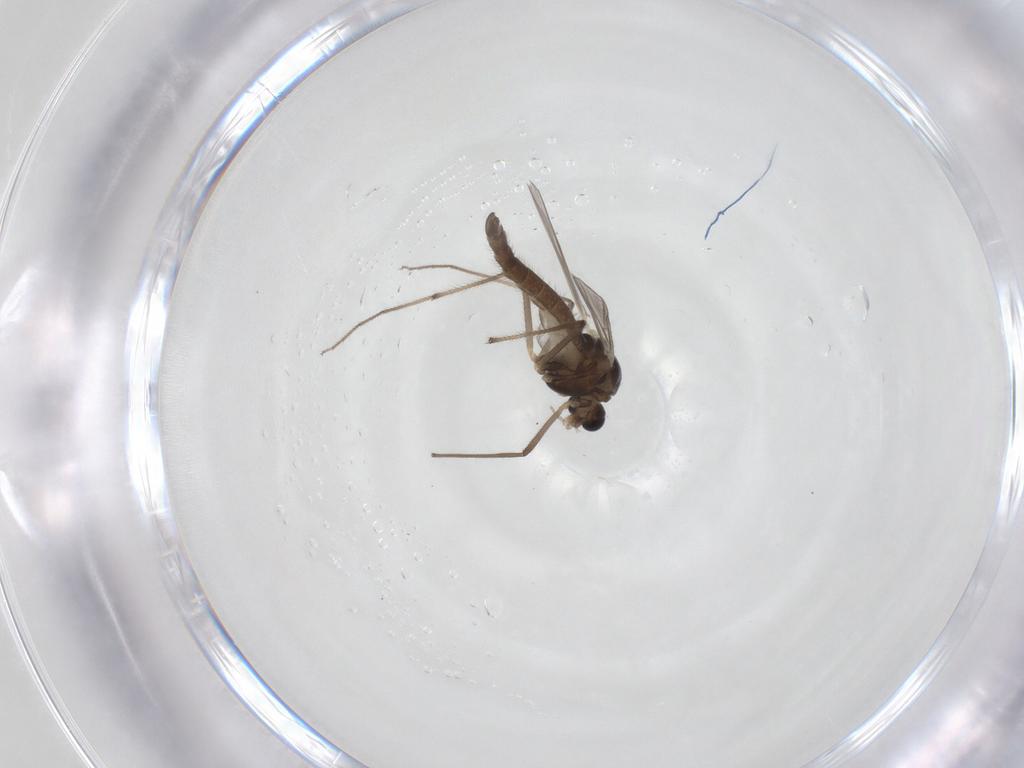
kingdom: Animalia
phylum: Arthropoda
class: Insecta
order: Diptera
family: Chironomidae
